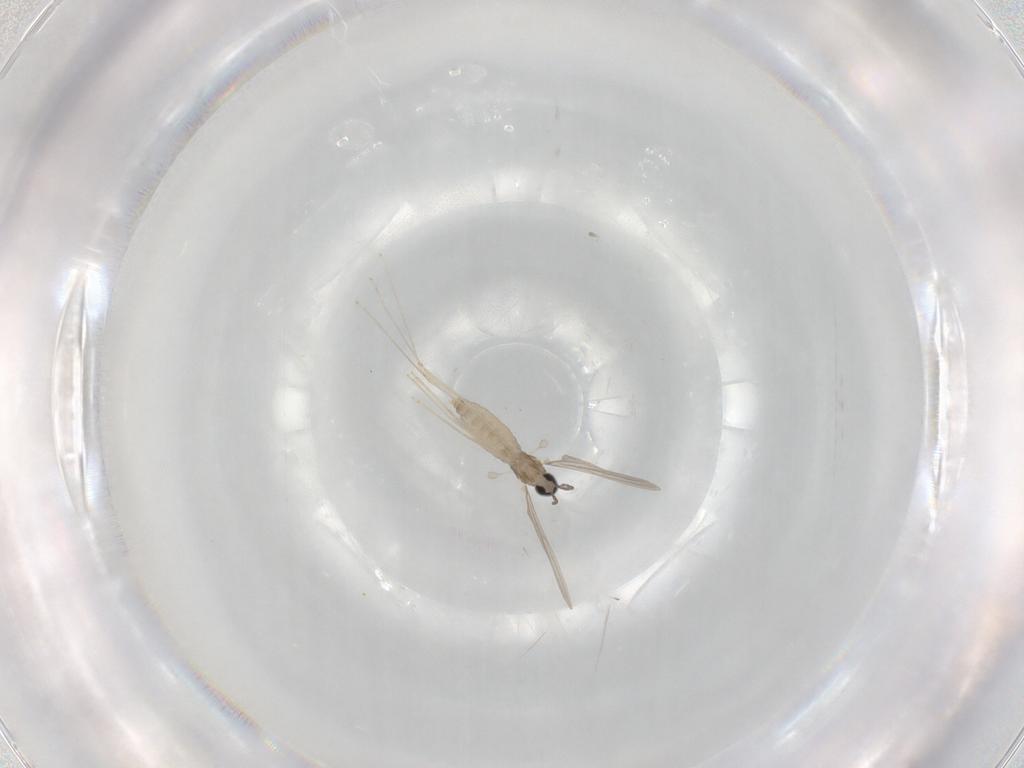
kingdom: Animalia
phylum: Arthropoda
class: Insecta
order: Diptera
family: Cecidomyiidae
